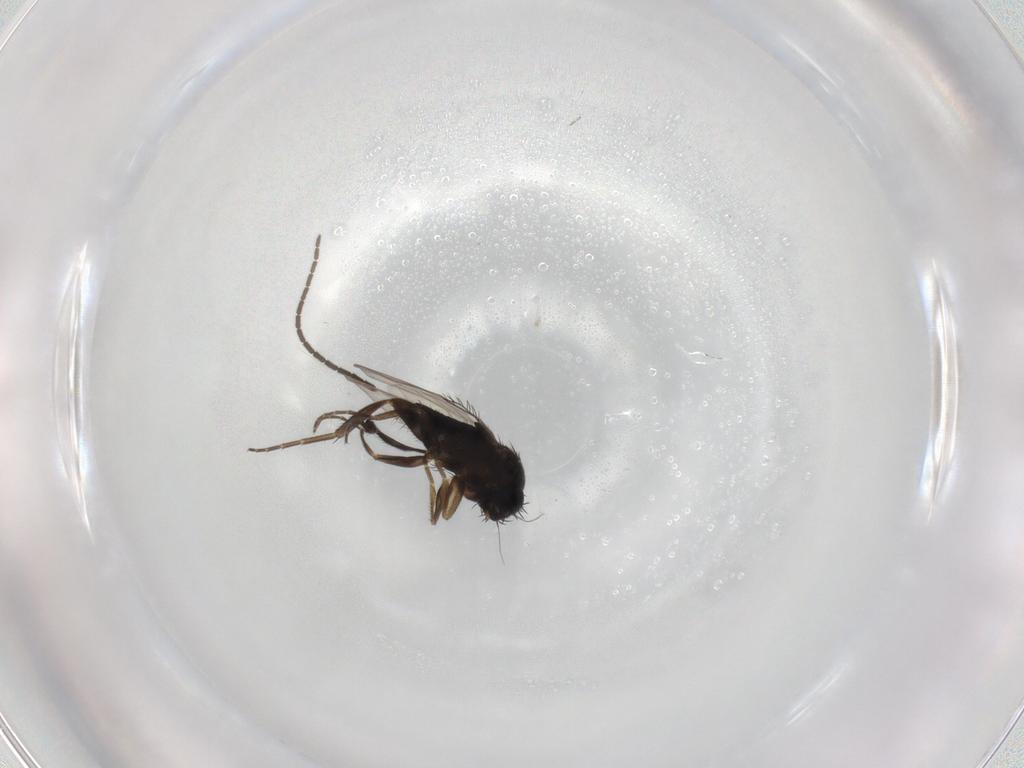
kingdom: Animalia
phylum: Arthropoda
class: Insecta
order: Diptera
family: Phoridae
